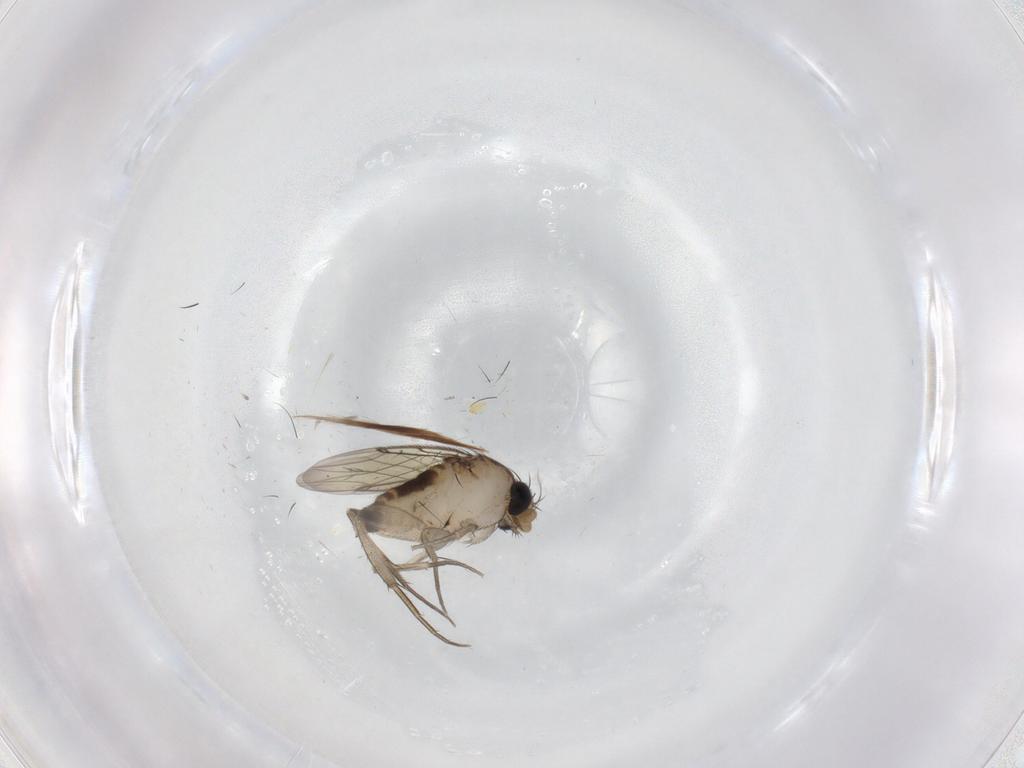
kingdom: Animalia
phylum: Arthropoda
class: Insecta
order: Diptera
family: Phoridae
